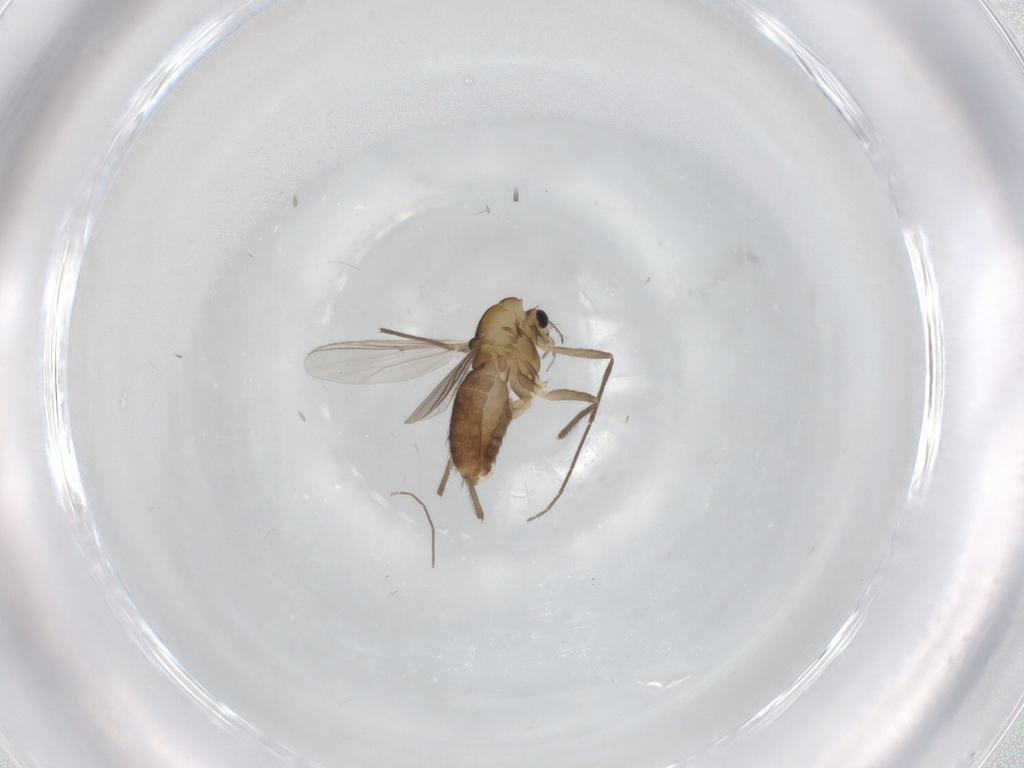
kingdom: Animalia
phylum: Arthropoda
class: Insecta
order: Diptera
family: Chironomidae
